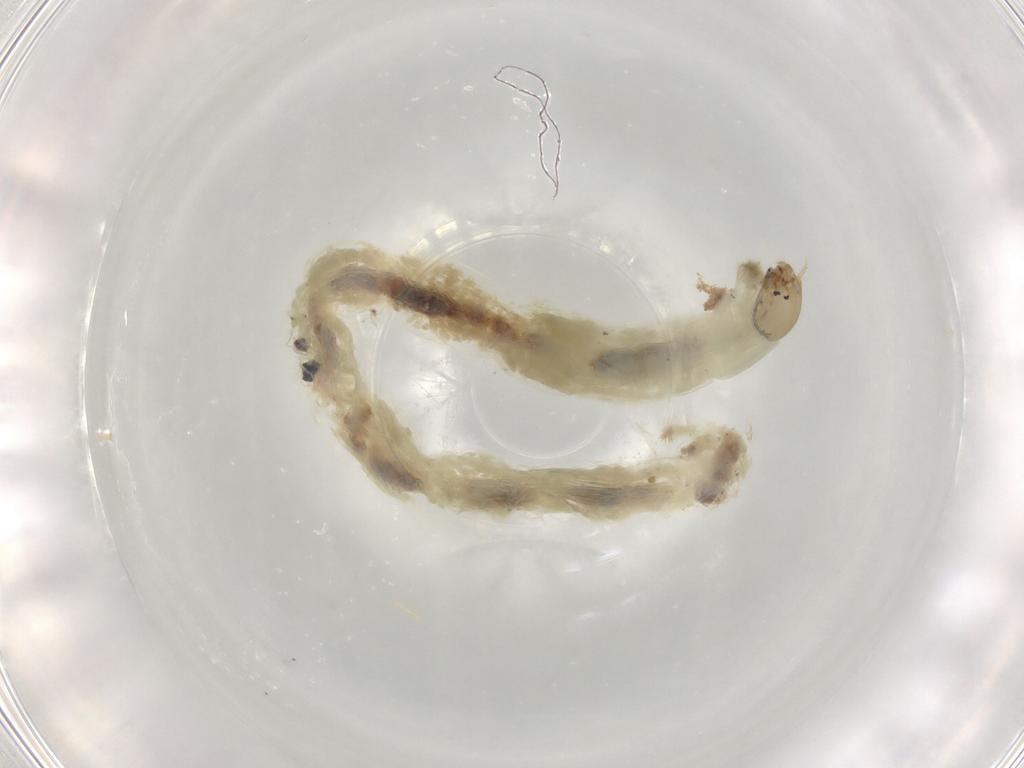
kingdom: Animalia
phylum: Arthropoda
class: Insecta
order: Diptera
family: Chironomidae
